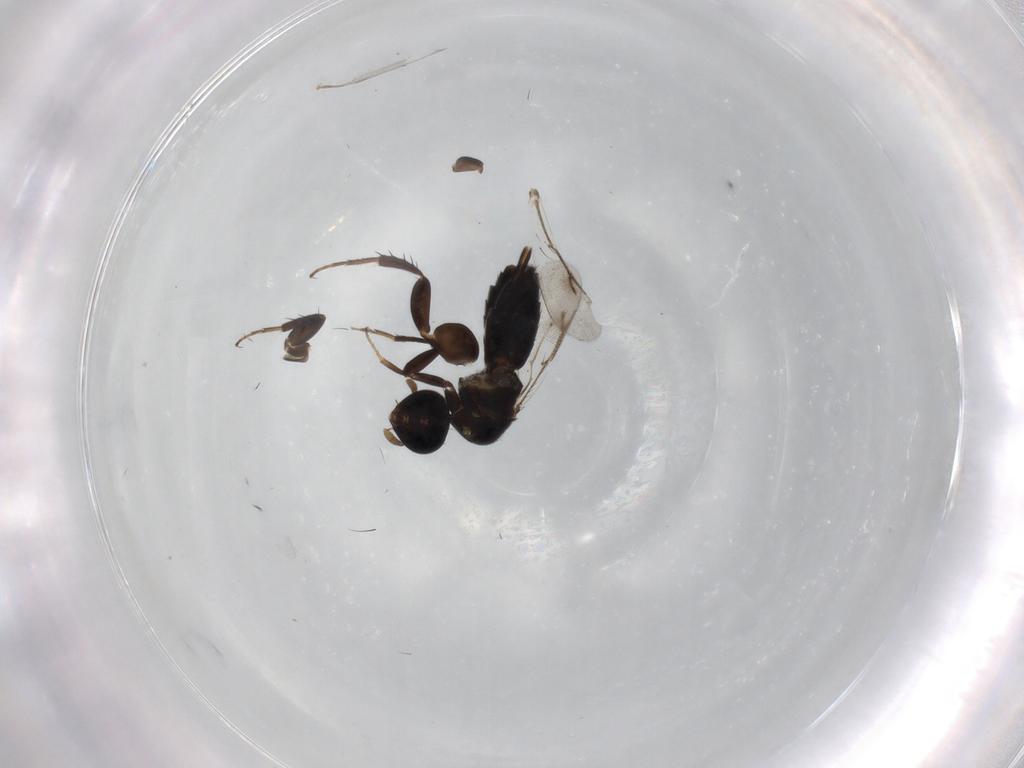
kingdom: Animalia
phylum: Arthropoda
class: Insecta
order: Hymenoptera
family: Pirenidae
